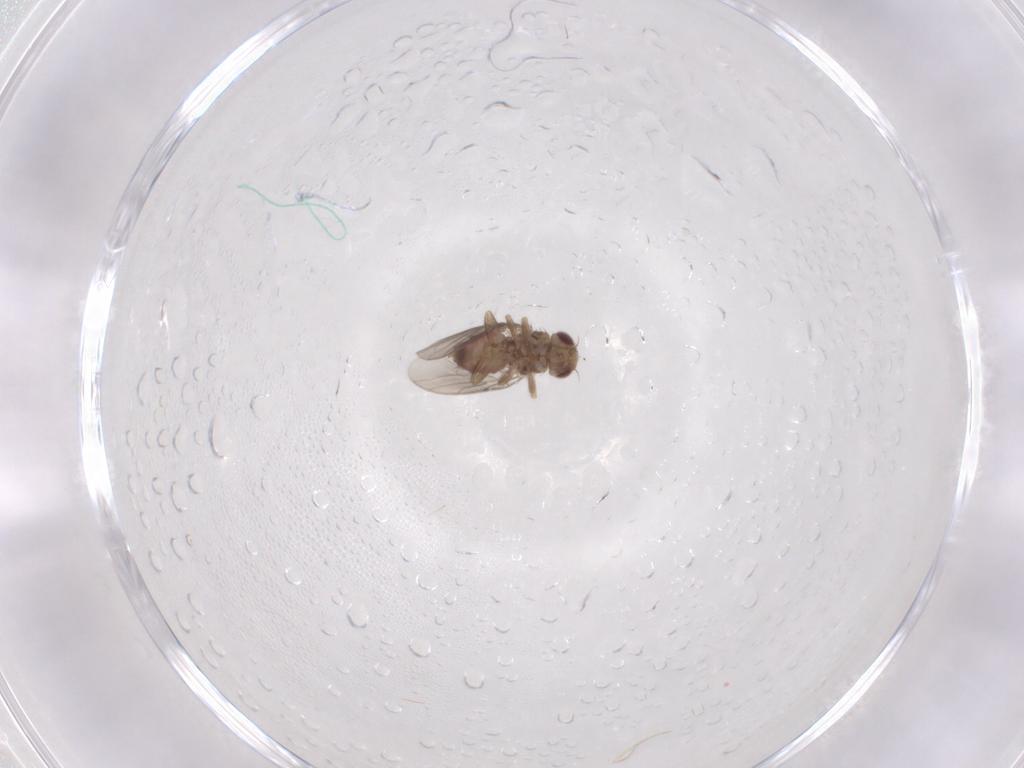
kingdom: Animalia
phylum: Arthropoda
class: Insecta
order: Diptera
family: Chloropidae
